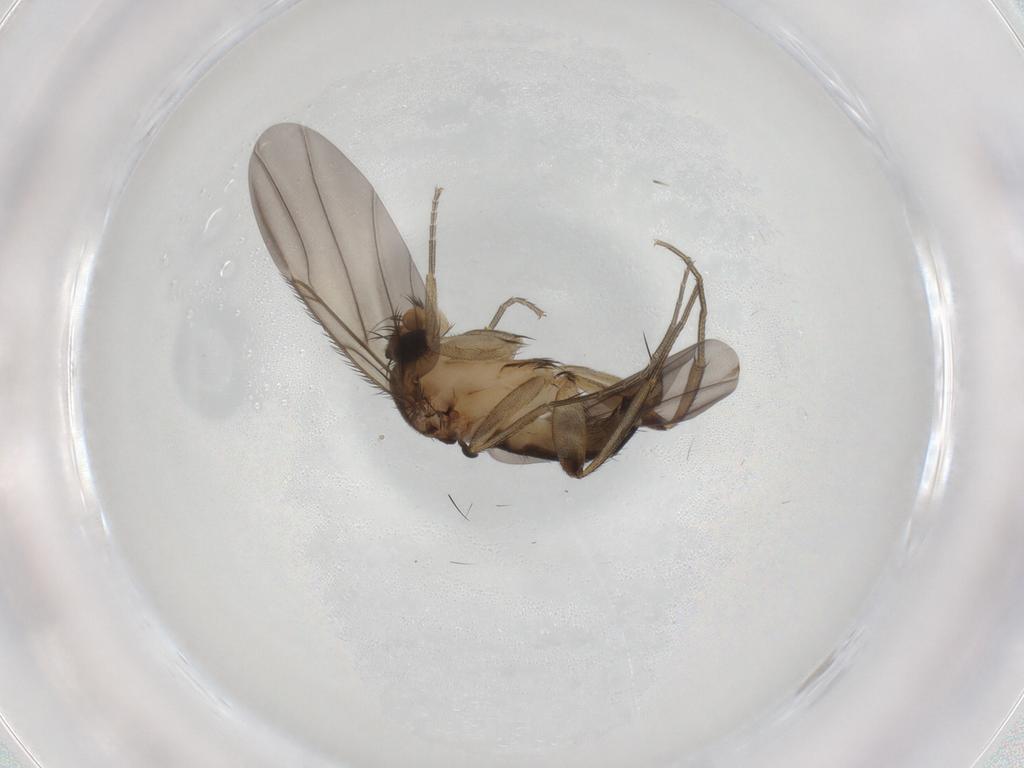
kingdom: Animalia
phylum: Arthropoda
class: Insecta
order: Diptera
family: Phoridae
